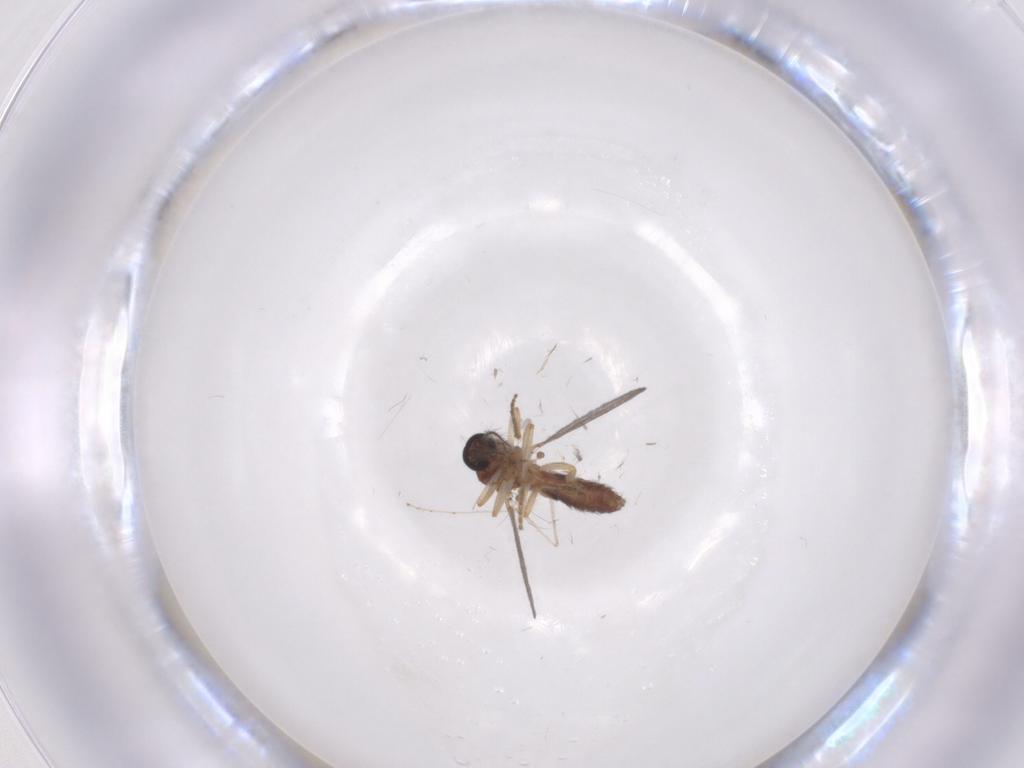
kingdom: Animalia
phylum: Arthropoda
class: Insecta
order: Diptera
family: Ceratopogonidae
